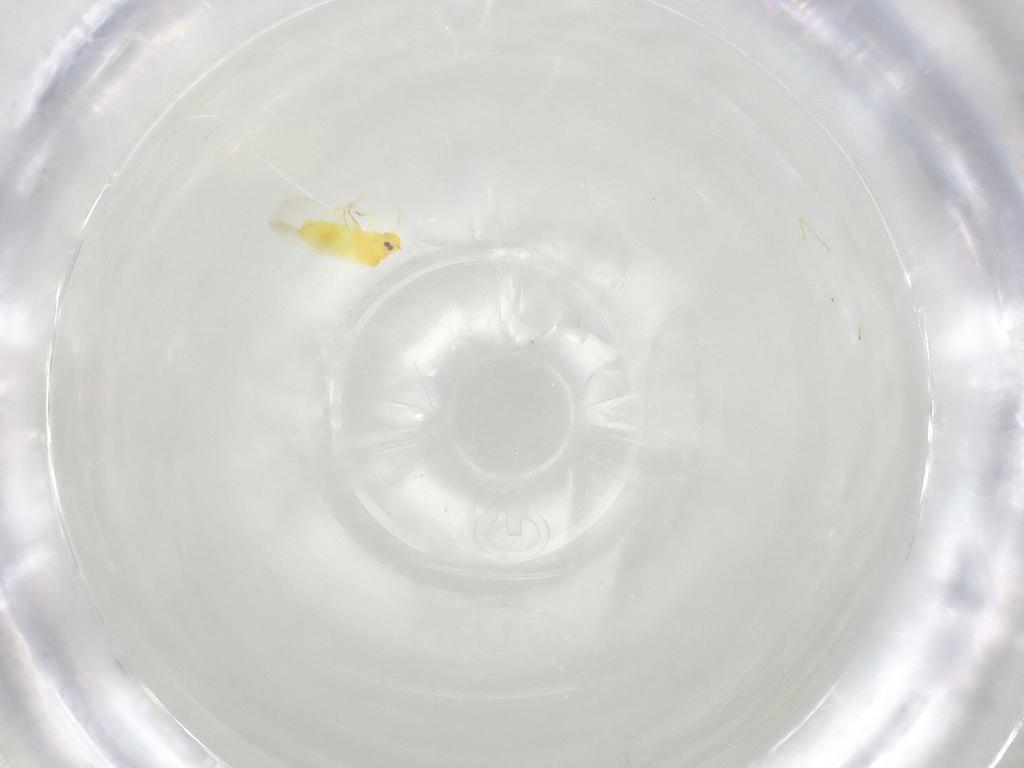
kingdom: Animalia
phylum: Arthropoda
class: Insecta
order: Hemiptera
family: Aleyrodidae
